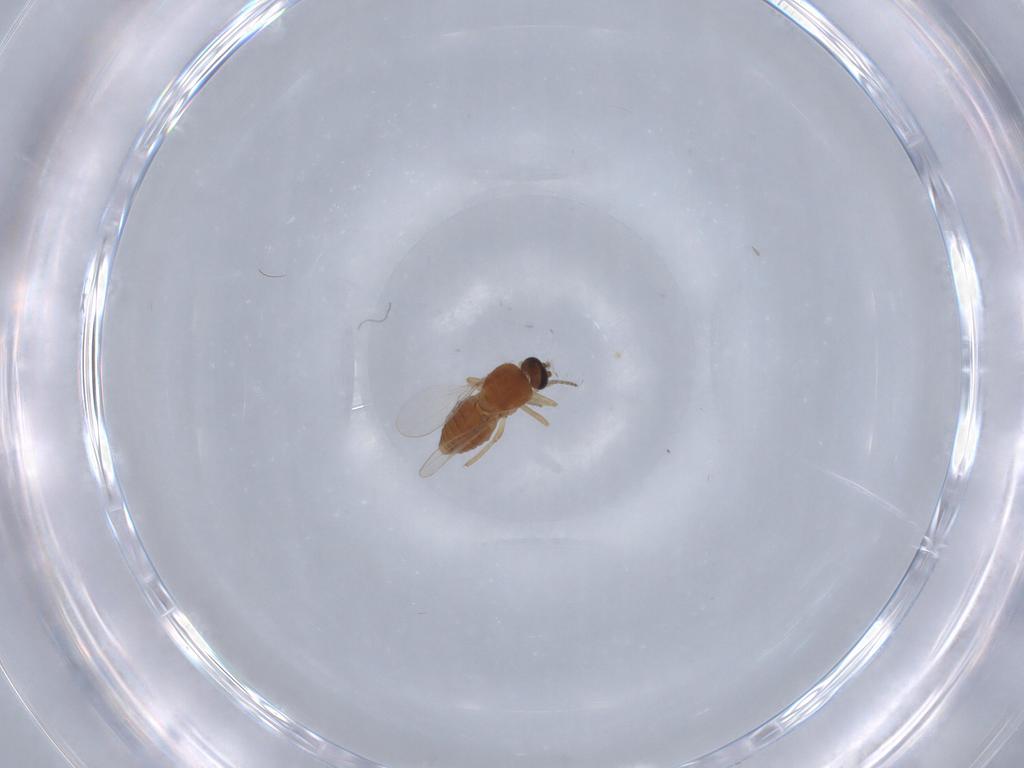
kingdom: Animalia
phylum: Arthropoda
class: Insecta
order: Diptera
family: Ceratopogonidae
